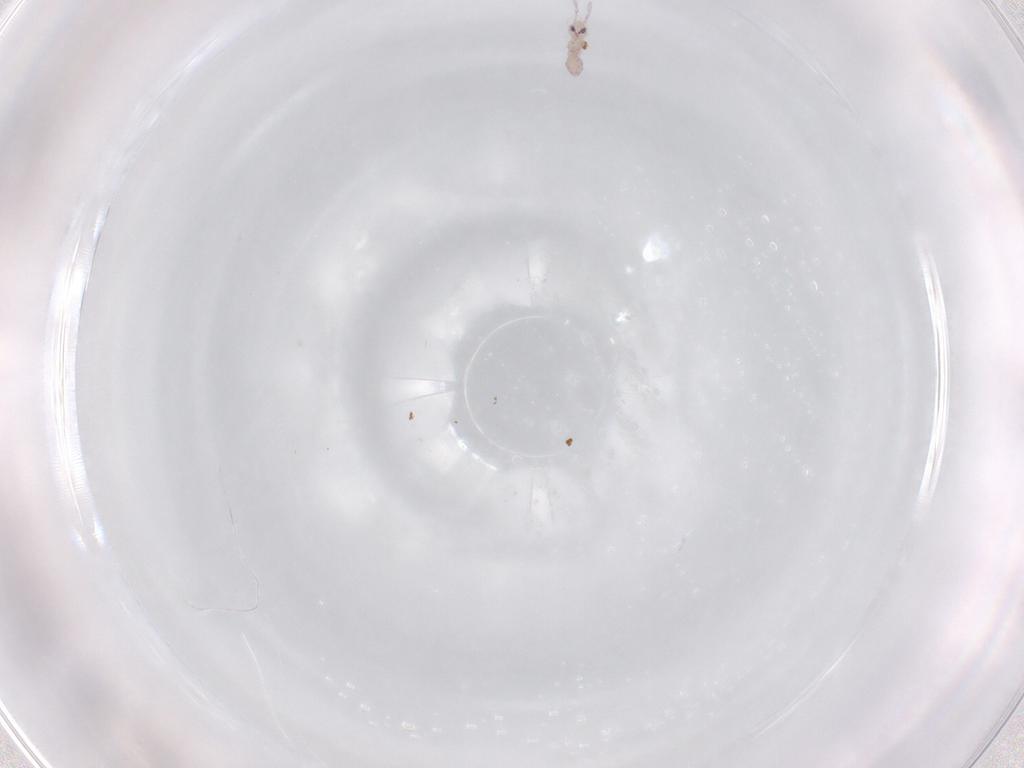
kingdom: Animalia
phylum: Arthropoda
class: Collembola
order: Entomobryomorpha
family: Entomobryidae
